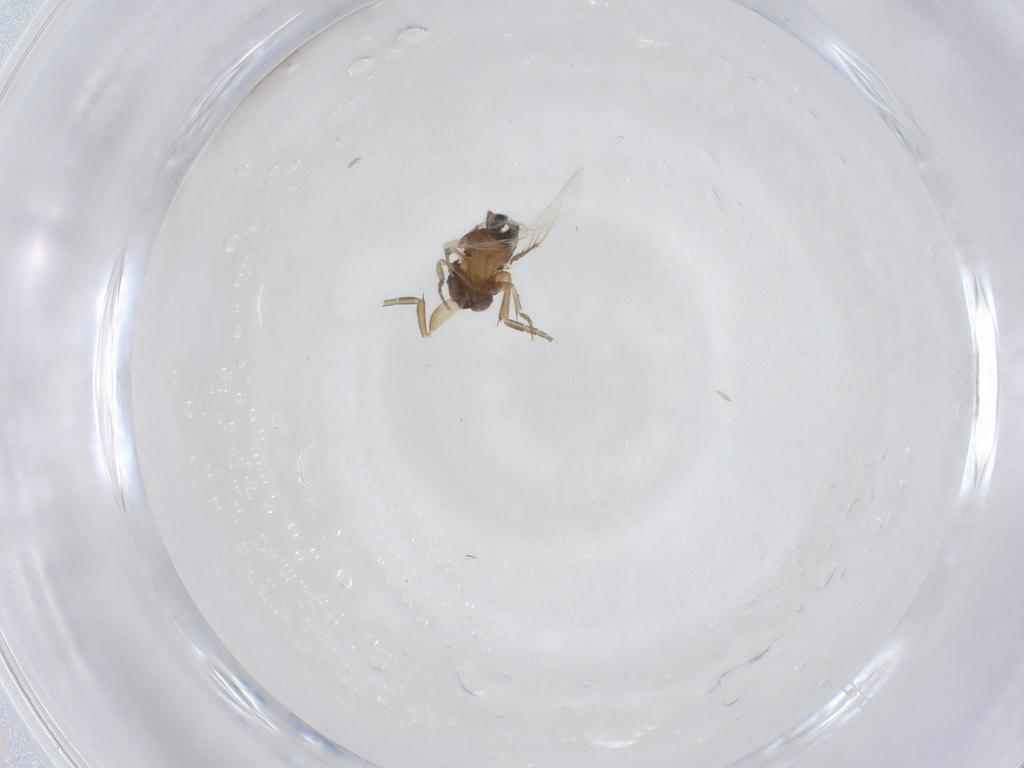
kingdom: Animalia
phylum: Arthropoda
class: Insecta
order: Diptera
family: Phoridae
